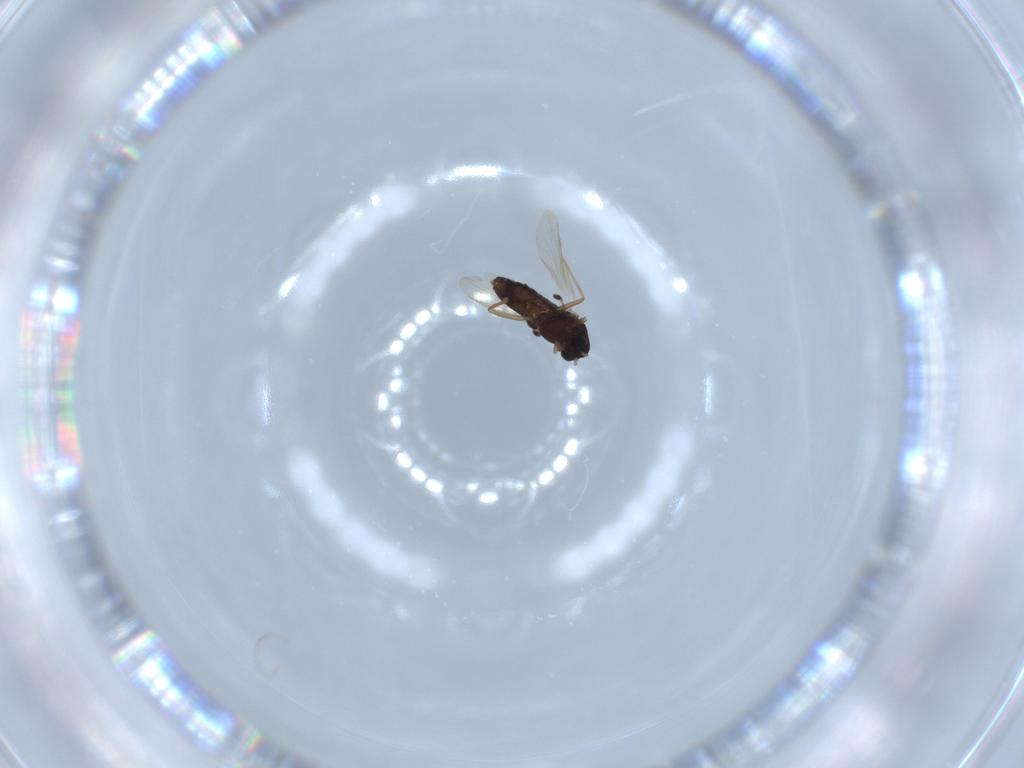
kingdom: Animalia
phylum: Arthropoda
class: Insecta
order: Diptera
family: Chironomidae
